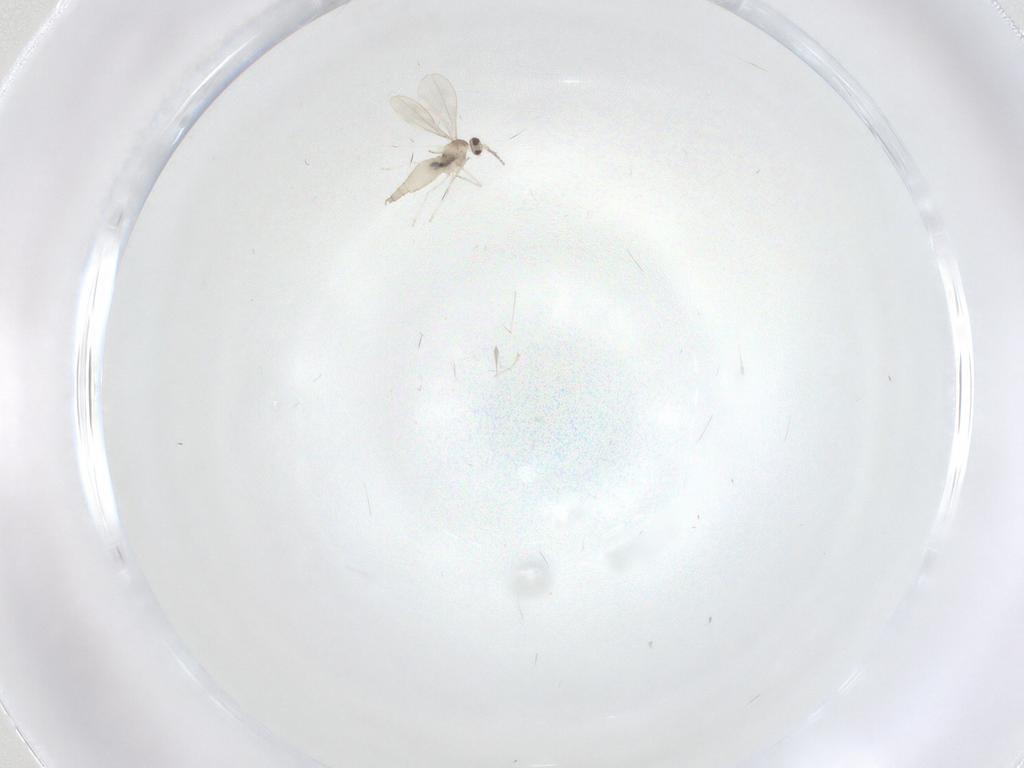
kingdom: Animalia
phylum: Arthropoda
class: Insecta
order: Diptera
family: Cecidomyiidae
